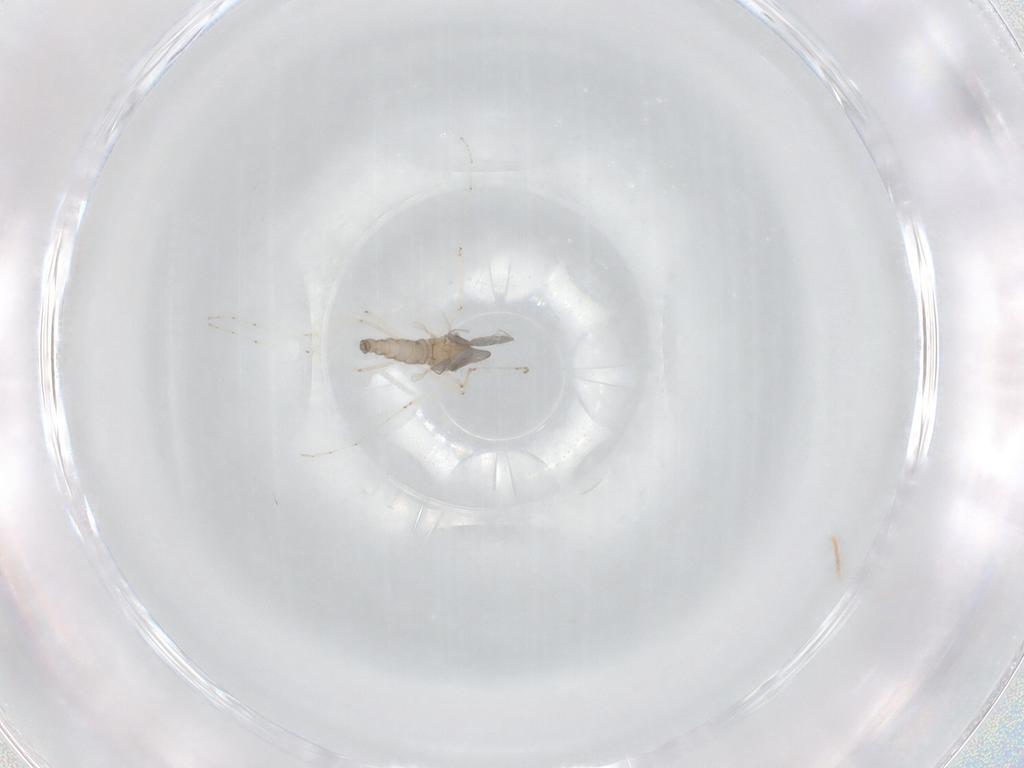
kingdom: Animalia
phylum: Arthropoda
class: Insecta
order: Diptera
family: Cecidomyiidae
